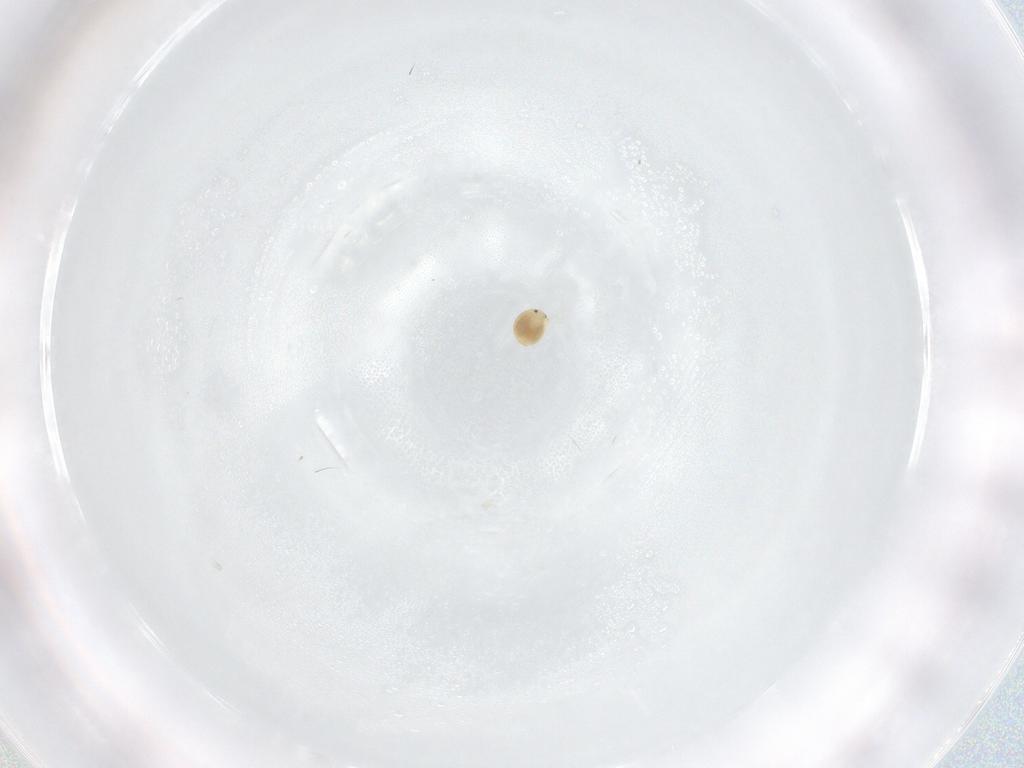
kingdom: Animalia
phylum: Arthropoda
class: Arachnida
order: Trombidiformes
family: Unionicolidae
